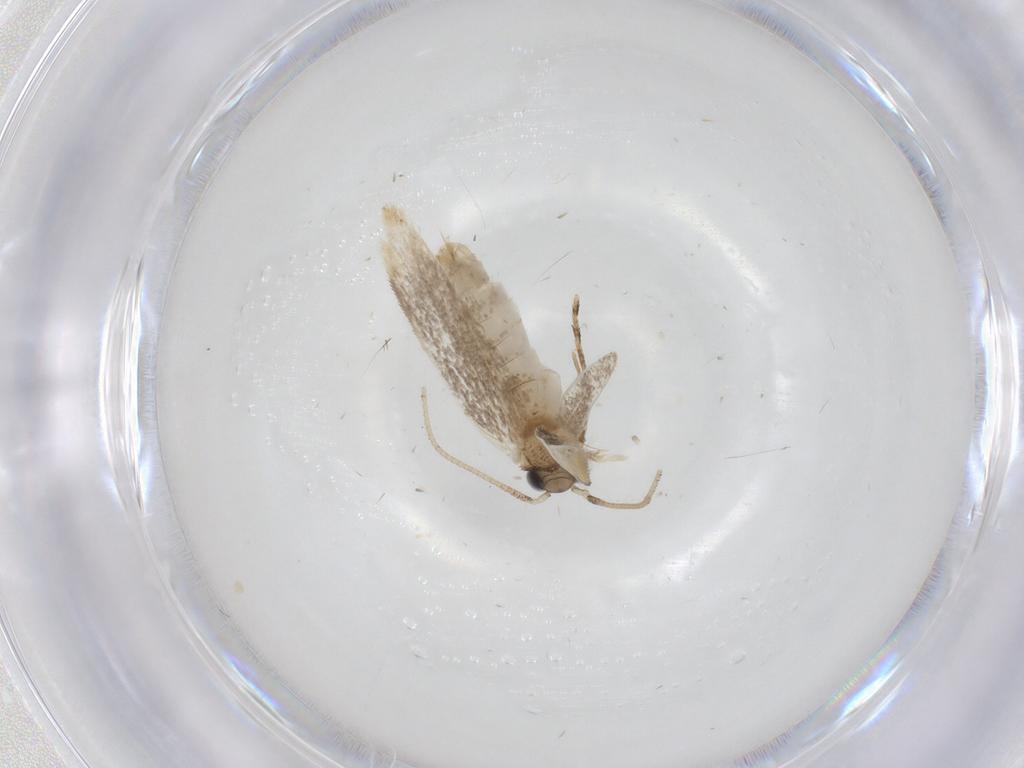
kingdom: Animalia
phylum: Arthropoda
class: Insecta
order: Lepidoptera
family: Dryadaulidae
